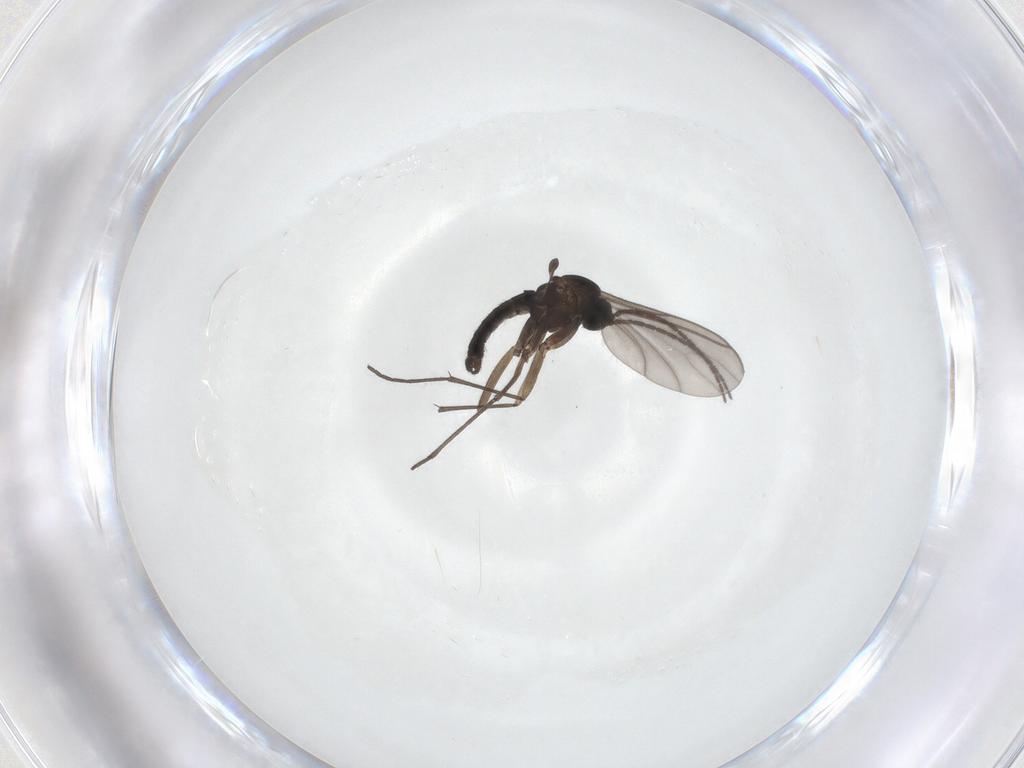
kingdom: Animalia
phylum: Arthropoda
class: Insecta
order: Diptera
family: Sciaridae
